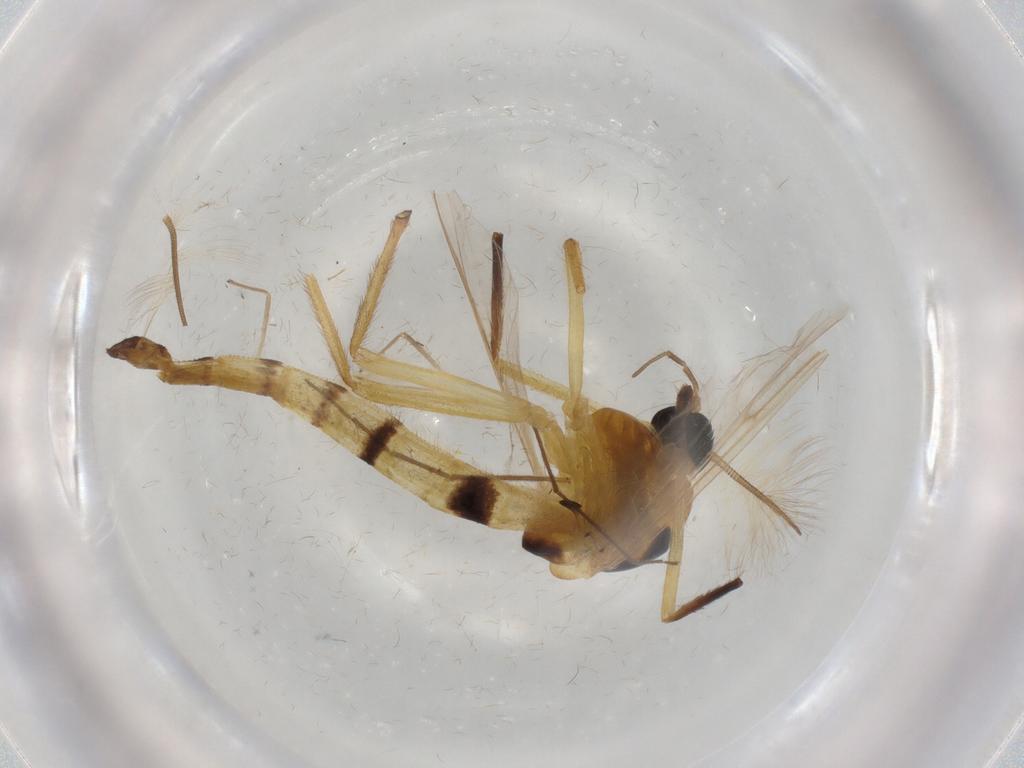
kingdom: Animalia
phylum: Arthropoda
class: Insecta
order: Diptera
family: Chironomidae
